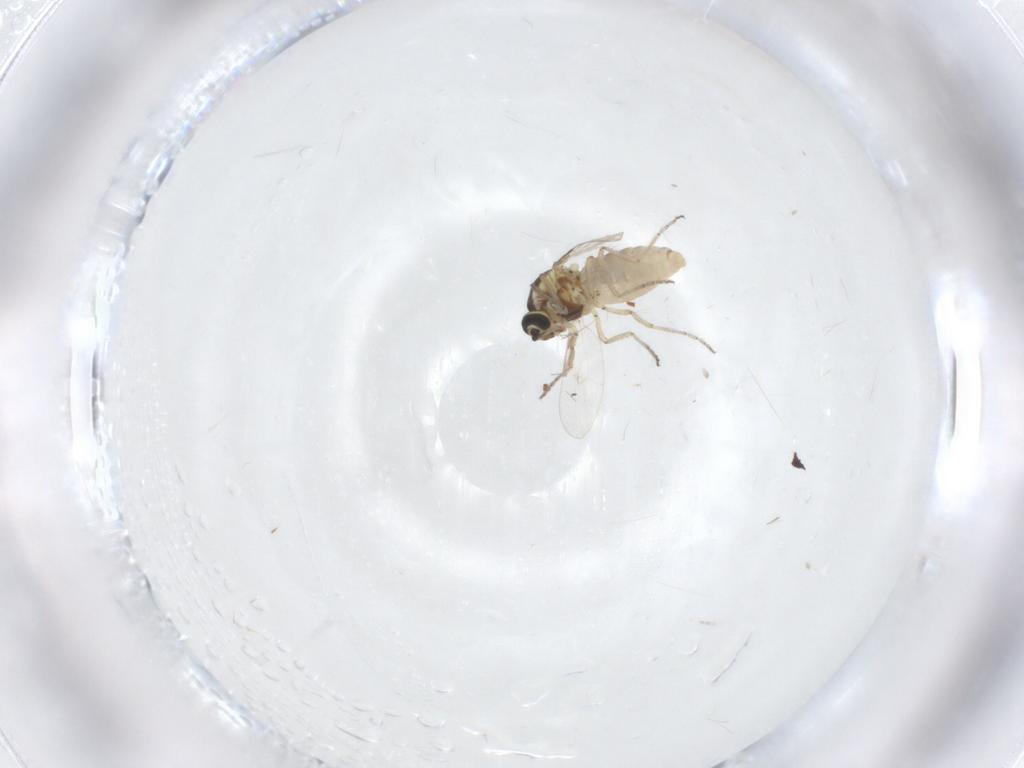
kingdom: Animalia
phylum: Arthropoda
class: Insecta
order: Diptera
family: Ceratopogonidae
